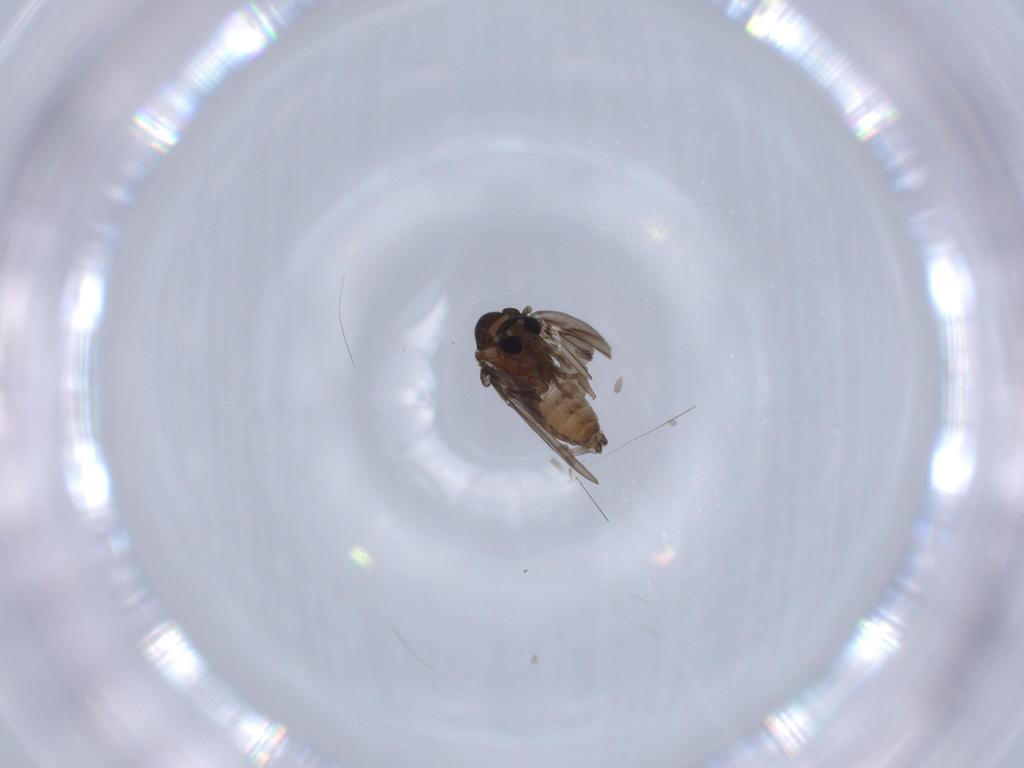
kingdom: Animalia
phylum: Arthropoda
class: Insecta
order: Diptera
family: Psychodidae
